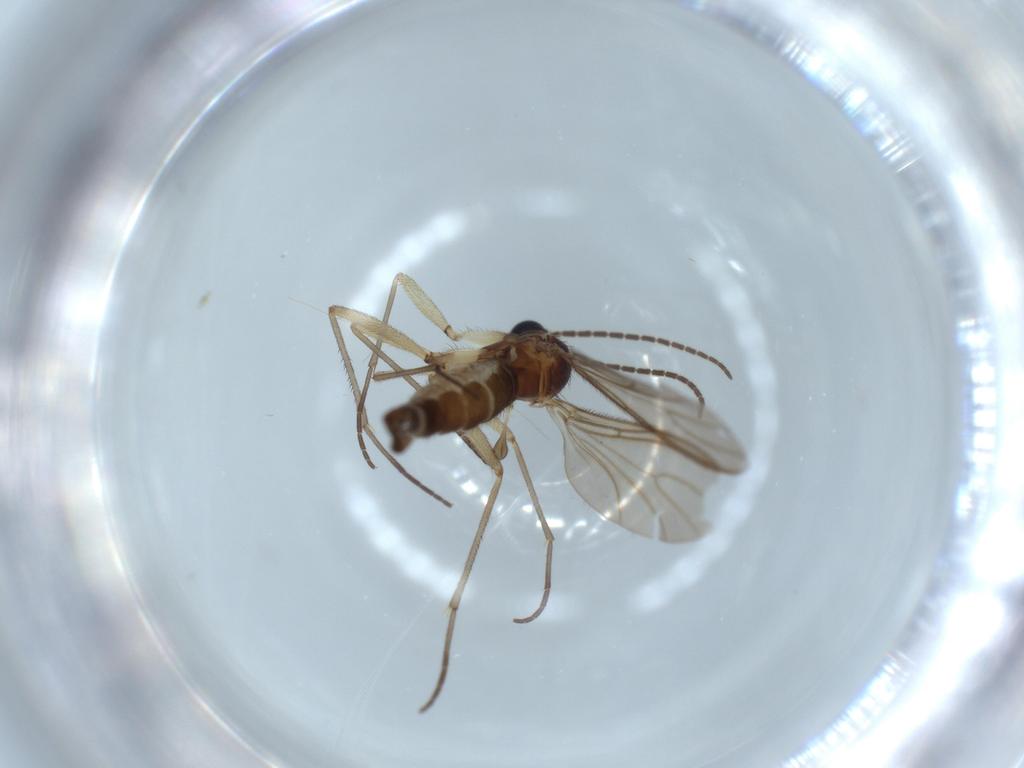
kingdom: Animalia
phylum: Arthropoda
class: Insecta
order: Diptera
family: Sciaridae
